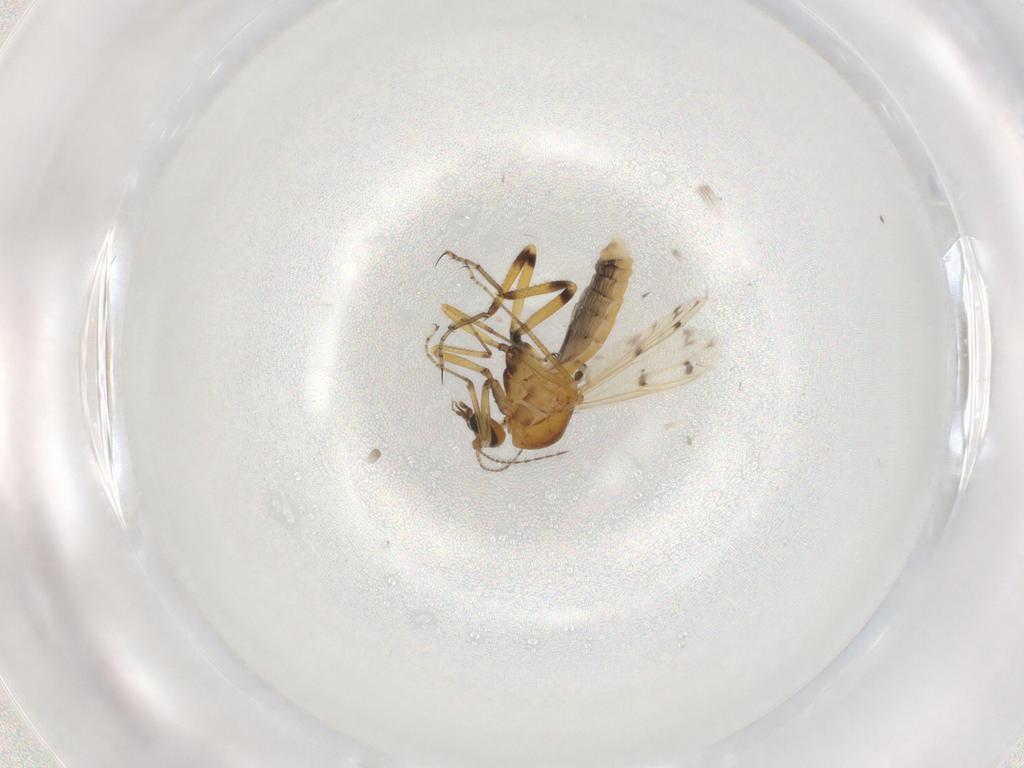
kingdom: Animalia
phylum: Arthropoda
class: Insecta
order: Diptera
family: Ceratopogonidae
